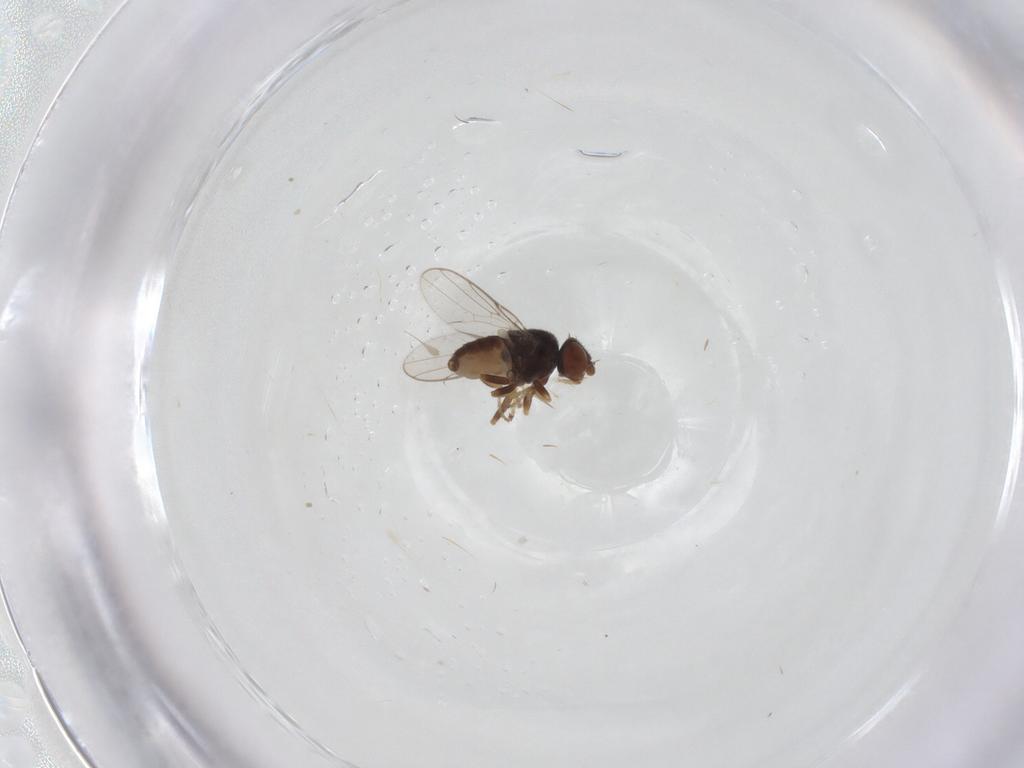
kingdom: Animalia
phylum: Arthropoda
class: Insecta
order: Diptera
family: Chloropidae
